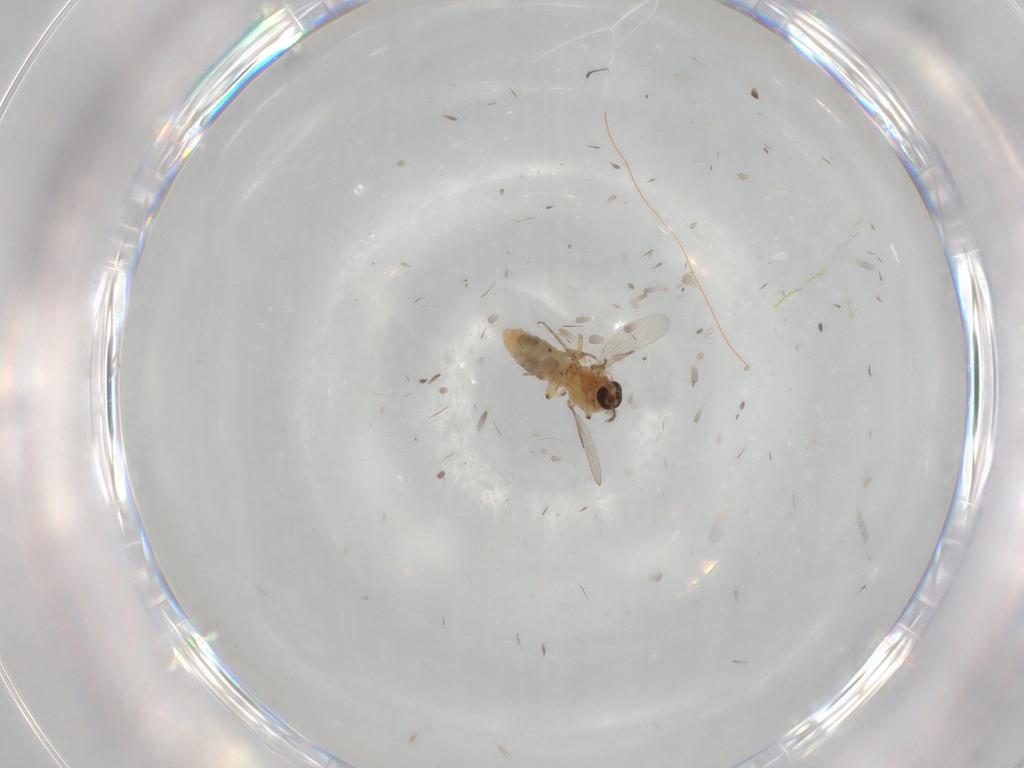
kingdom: Animalia
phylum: Arthropoda
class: Insecta
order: Diptera
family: Ceratopogonidae
